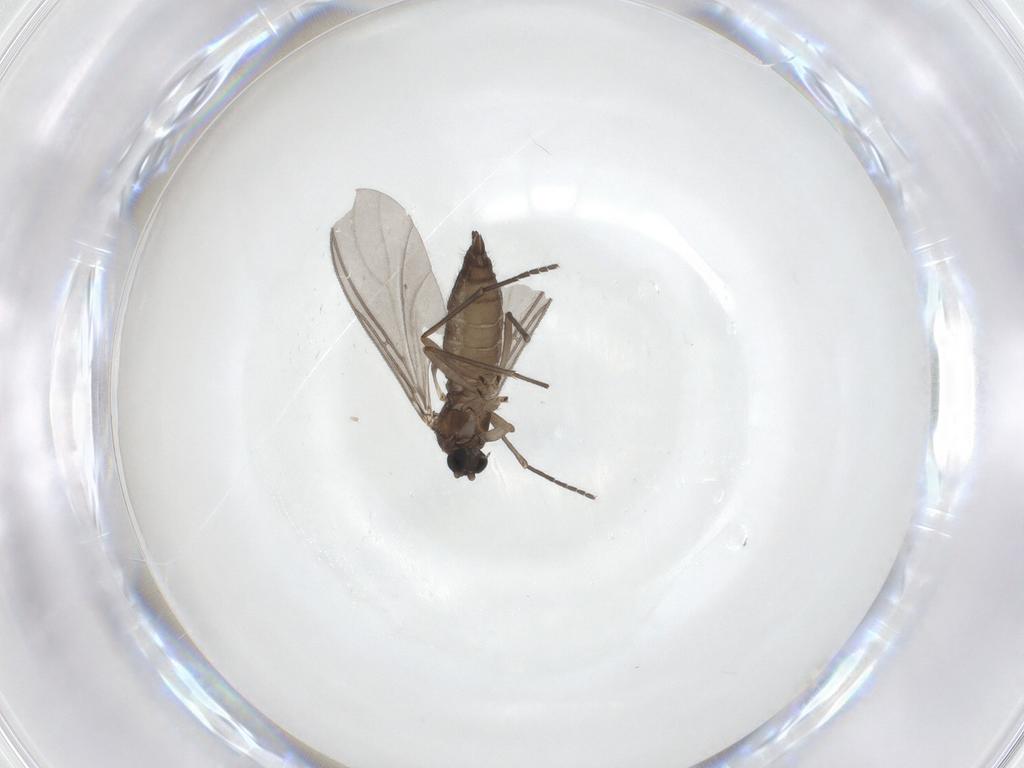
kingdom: Animalia
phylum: Arthropoda
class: Insecta
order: Diptera
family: Sciaridae
